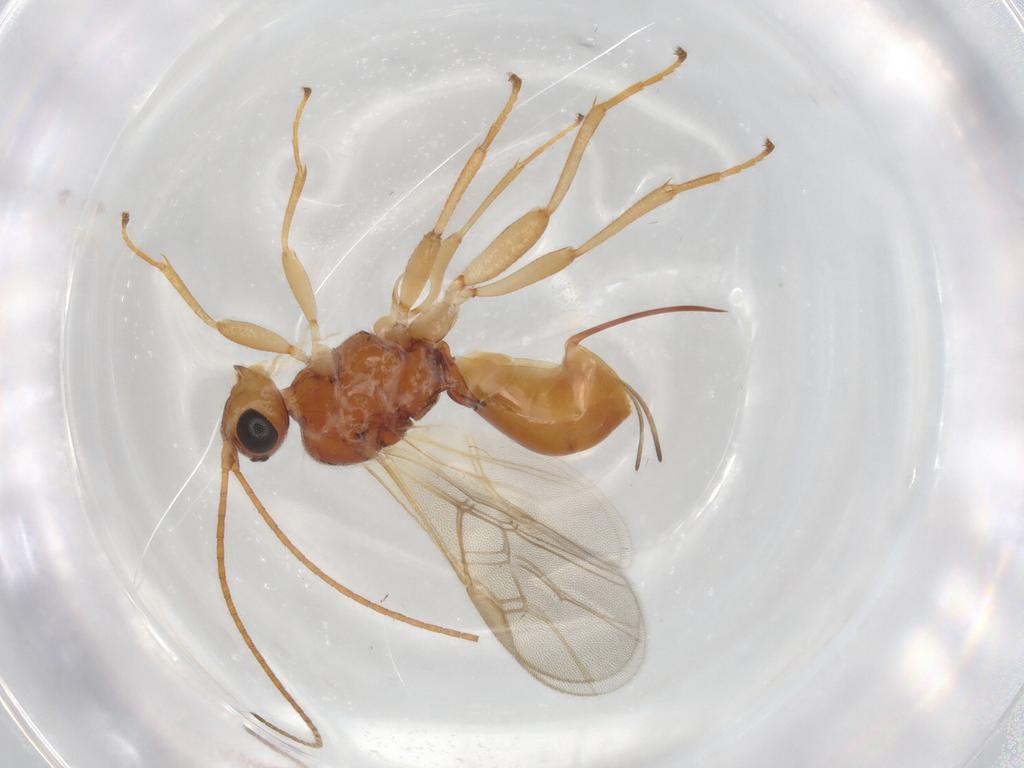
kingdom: Animalia
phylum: Arthropoda
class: Insecta
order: Hymenoptera
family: Braconidae
